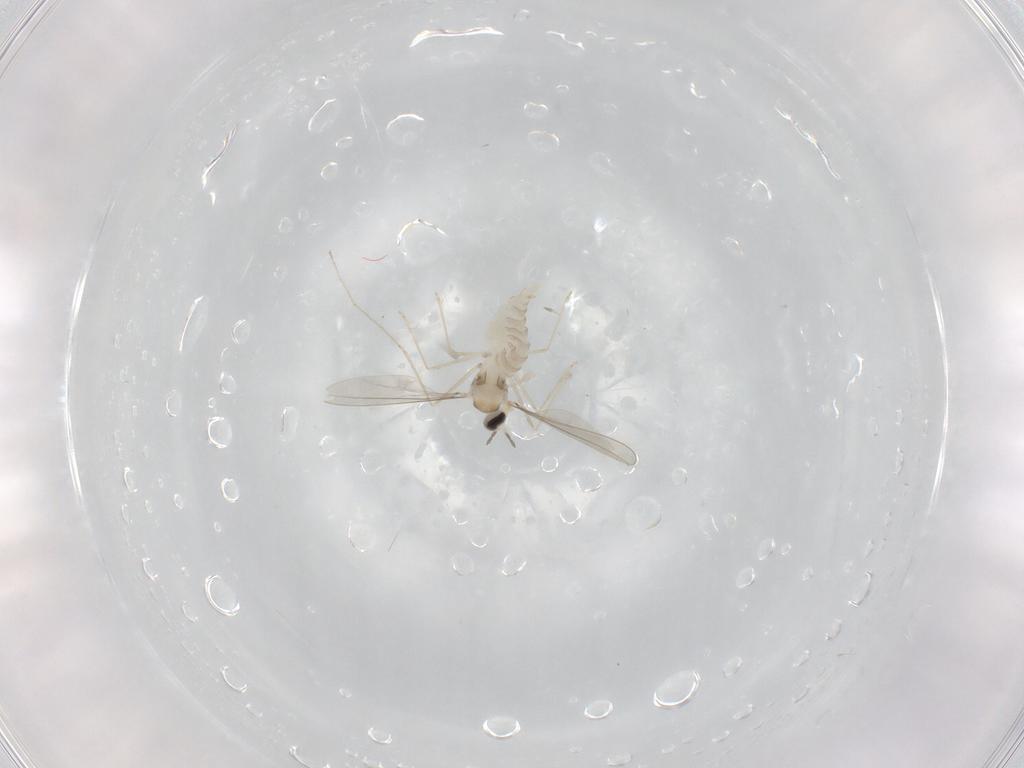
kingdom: Animalia
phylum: Arthropoda
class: Insecta
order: Diptera
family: Cecidomyiidae
